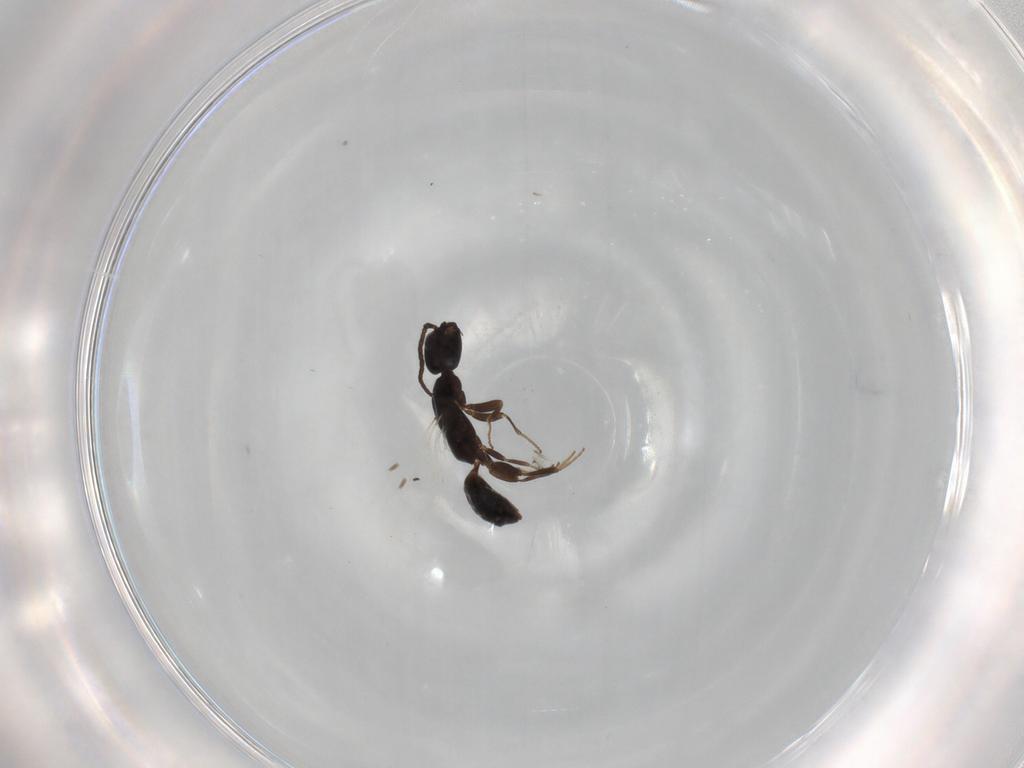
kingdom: Animalia
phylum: Arthropoda
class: Insecta
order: Hymenoptera
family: Bethylidae
